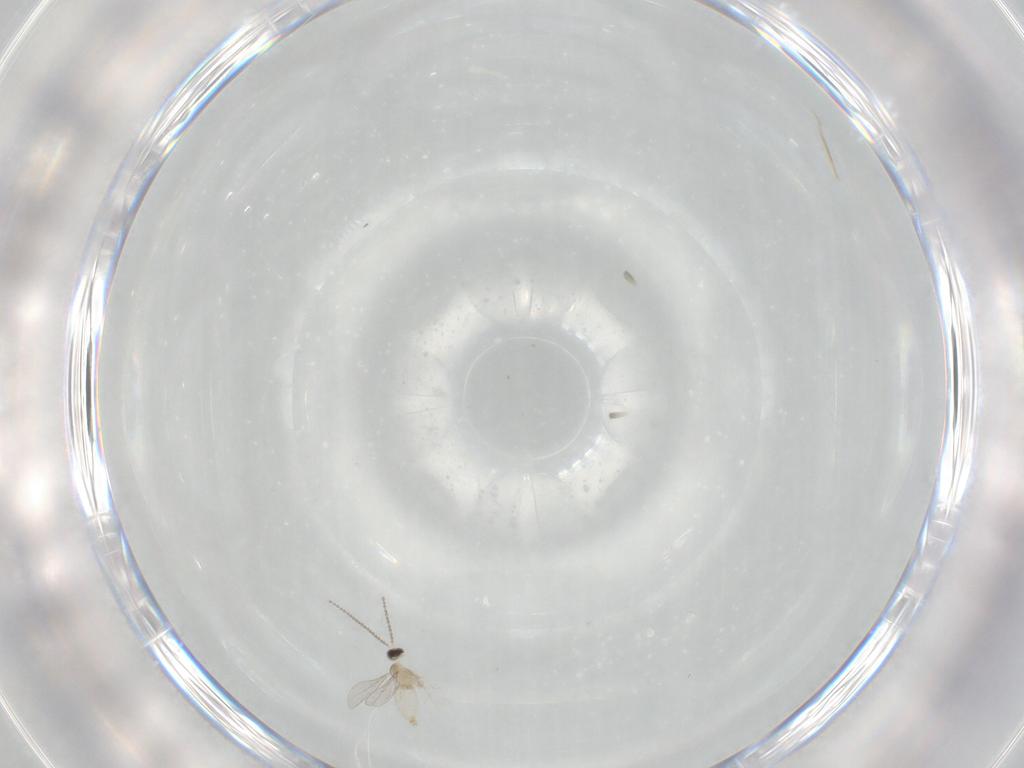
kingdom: Animalia
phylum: Arthropoda
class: Insecta
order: Diptera
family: Cecidomyiidae
